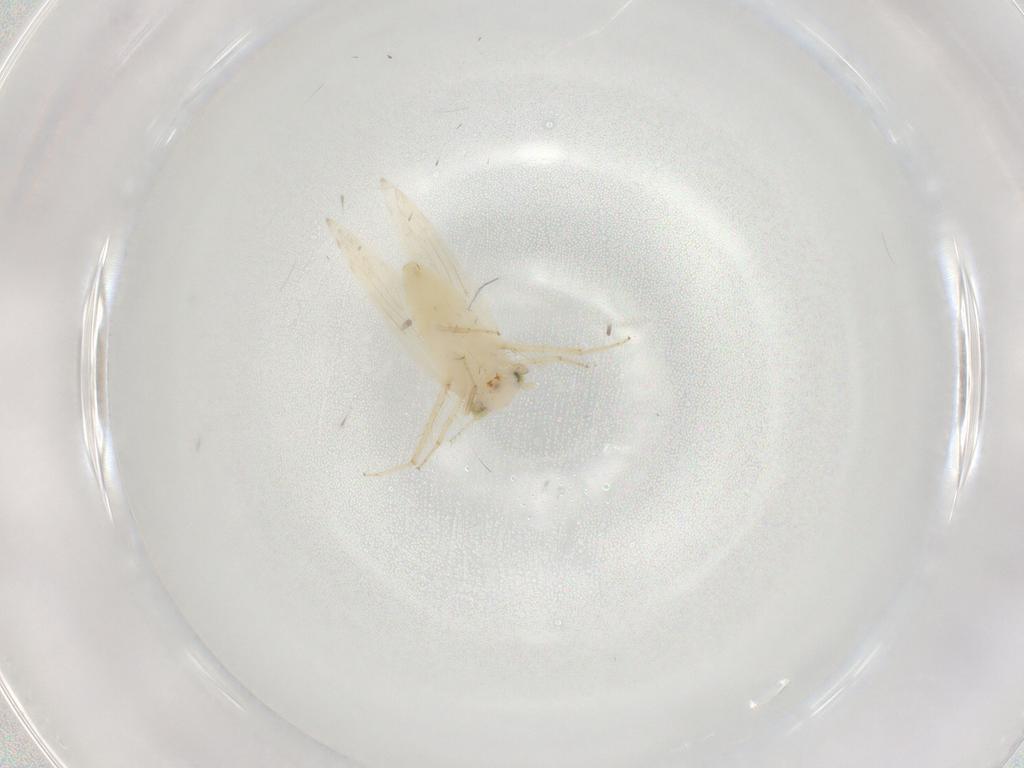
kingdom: Animalia
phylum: Arthropoda
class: Insecta
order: Psocodea
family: Lepidopsocidae
